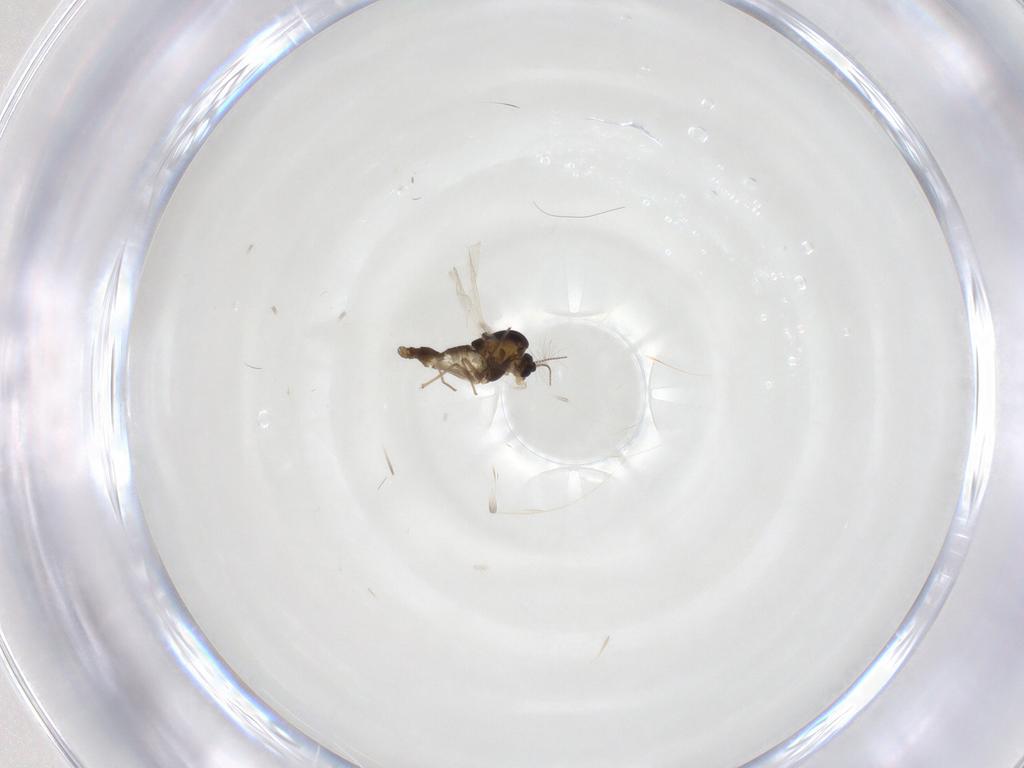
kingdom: Animalia
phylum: Arthropoda
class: Insecta
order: Diptera
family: Chironomidae
